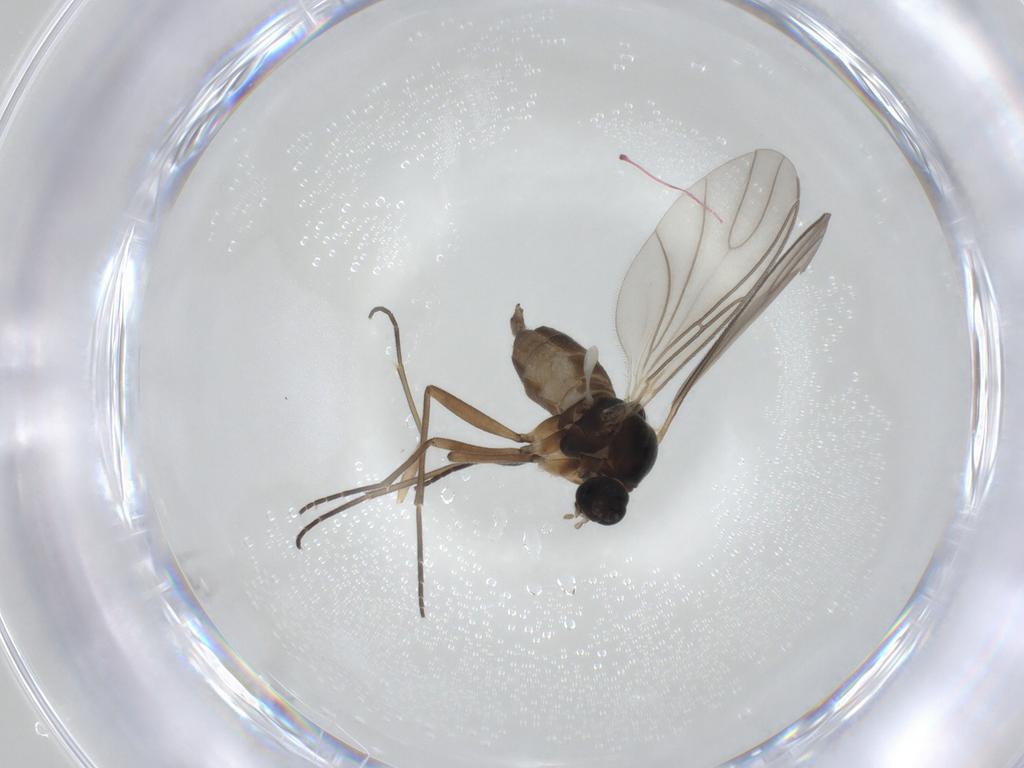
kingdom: Animalia
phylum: Arthropoda
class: Insecta
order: Diptera
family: Sciaridae
